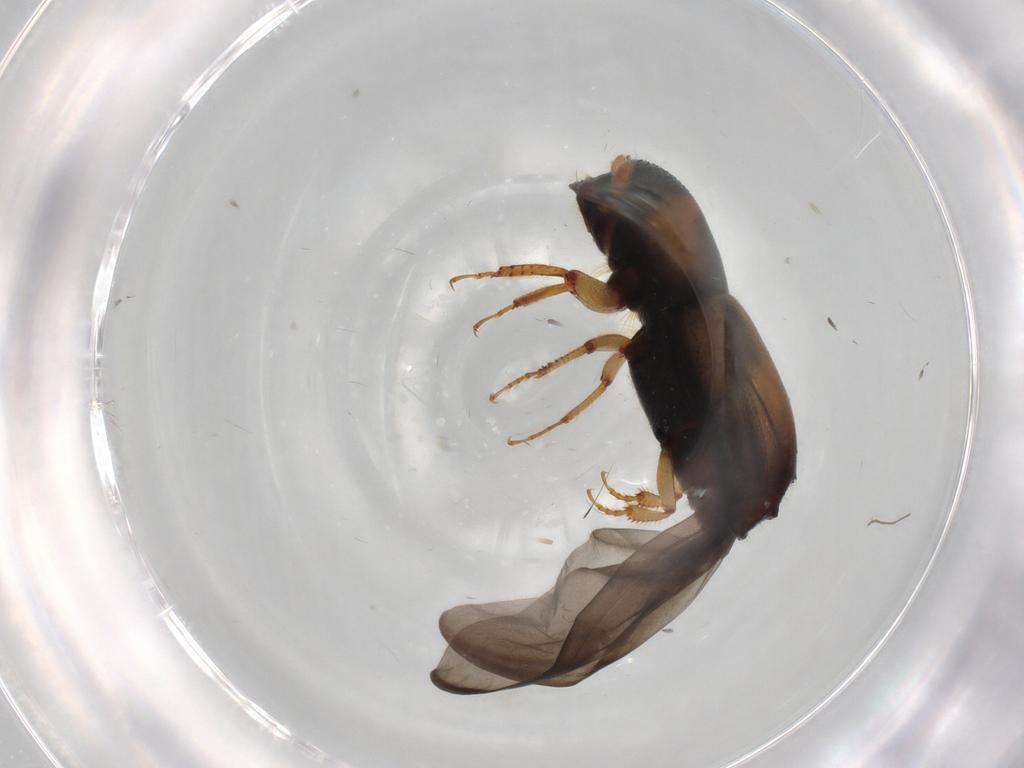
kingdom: Animalia
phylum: Arthropoda
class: Insecta
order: Coleoptera
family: Curculionidae
